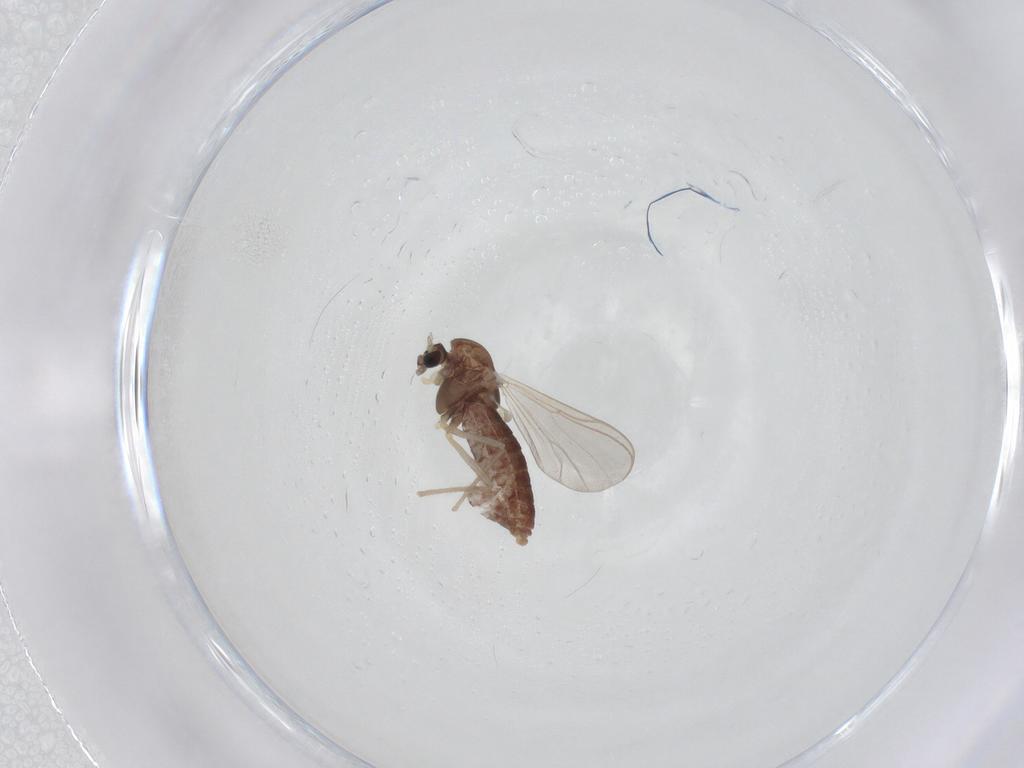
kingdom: Animalia
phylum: Arthropoda
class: Insecta
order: Diptera
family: Chironomidae
